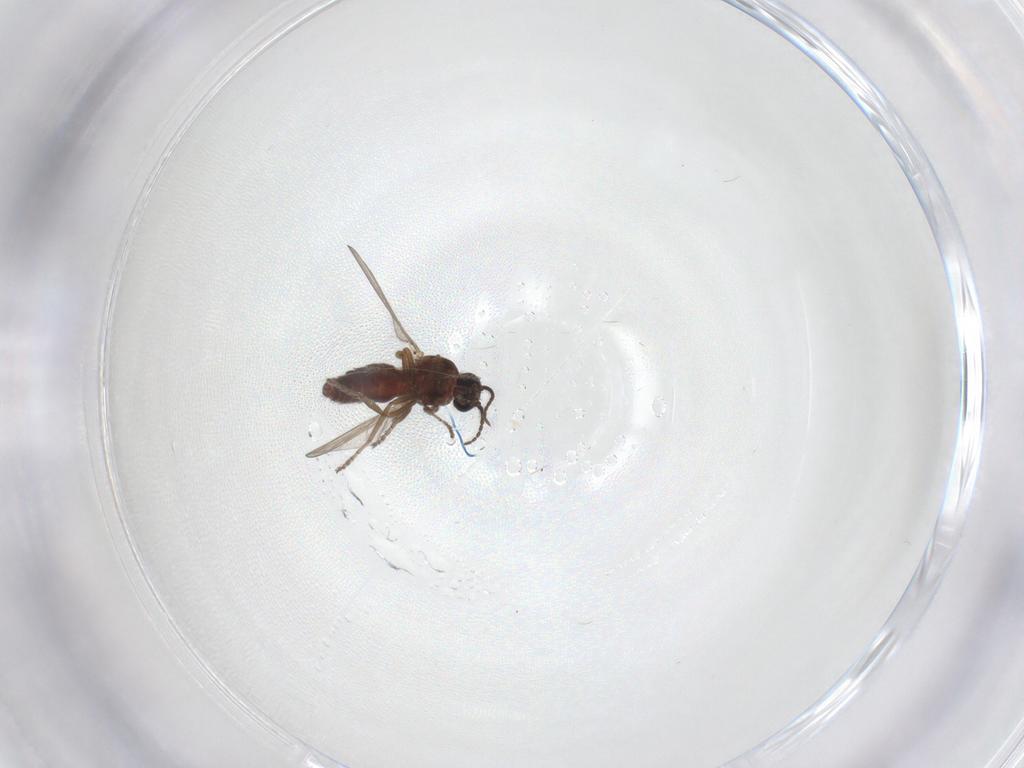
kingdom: Animalia
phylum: Arthropoda
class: Insecta
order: Diptera
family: Ceratopogonidae
